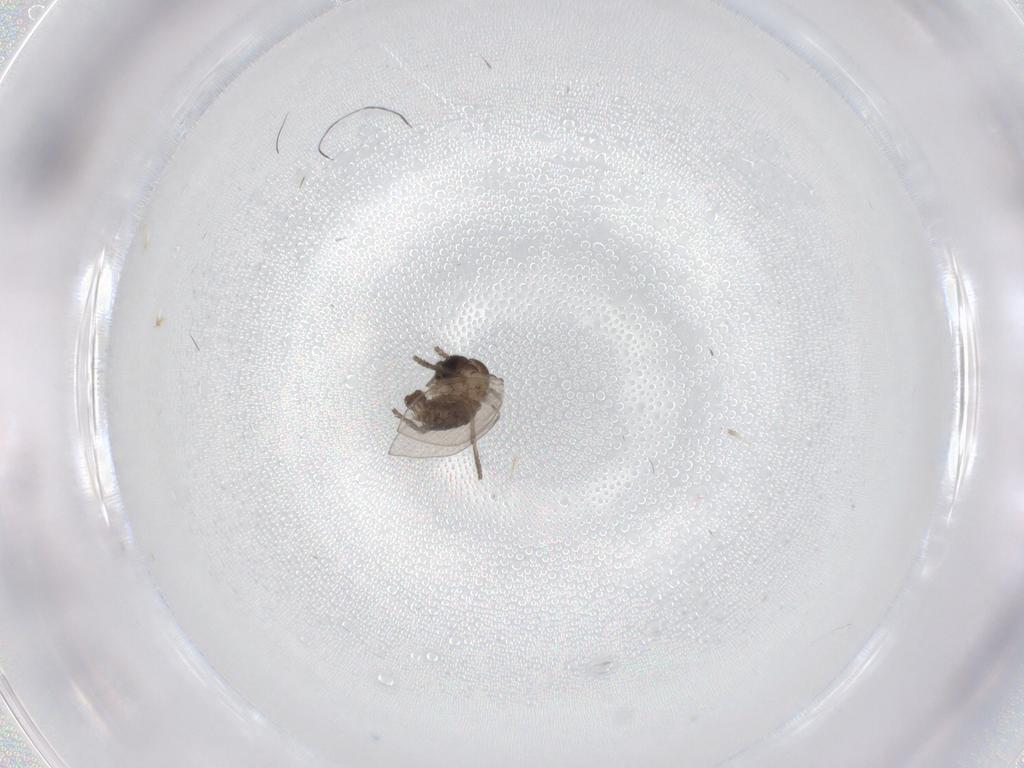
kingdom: Animalia
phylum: Arthropoda
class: Insecta
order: Diptera
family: Psychodidae
